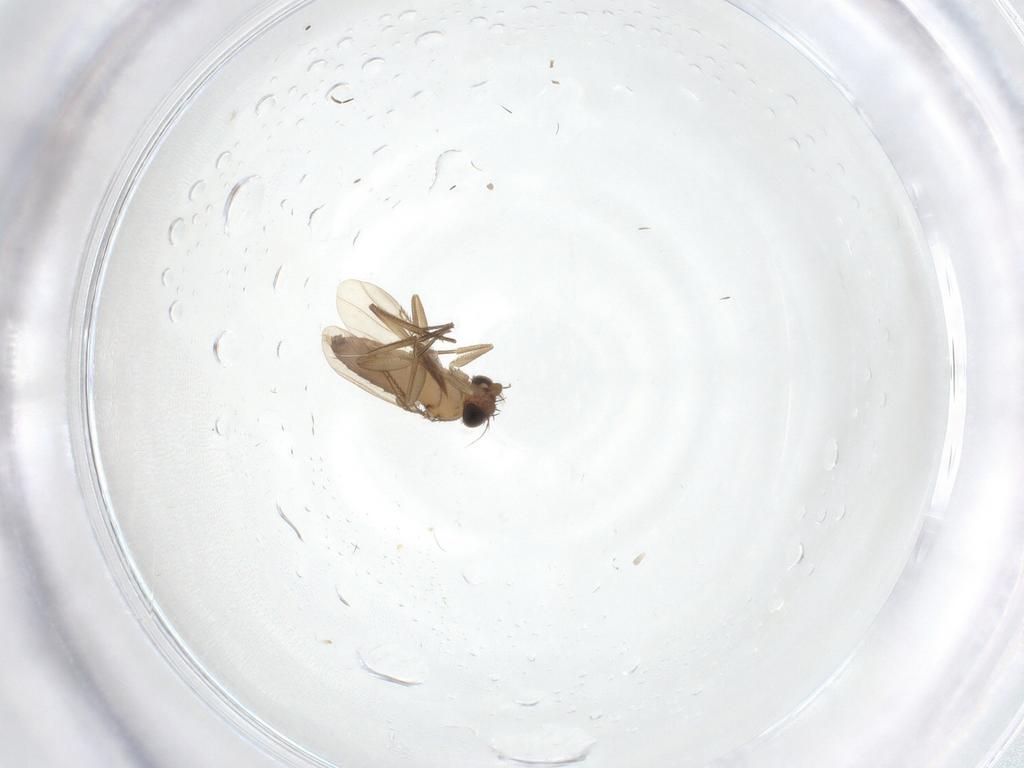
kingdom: Animalia
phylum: Arthropoda
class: Insecta
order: Diptera
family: Phoridae
